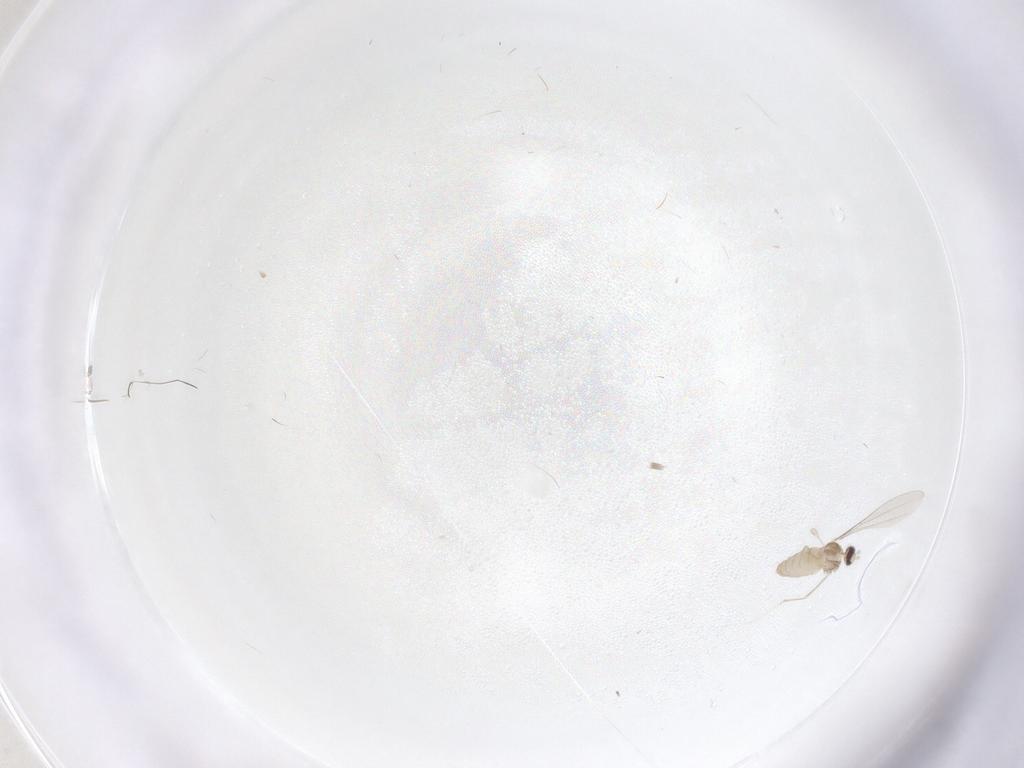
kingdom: Animalia
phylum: Arthropoda
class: Insecta
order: Diptera
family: Cecidomyiidae
